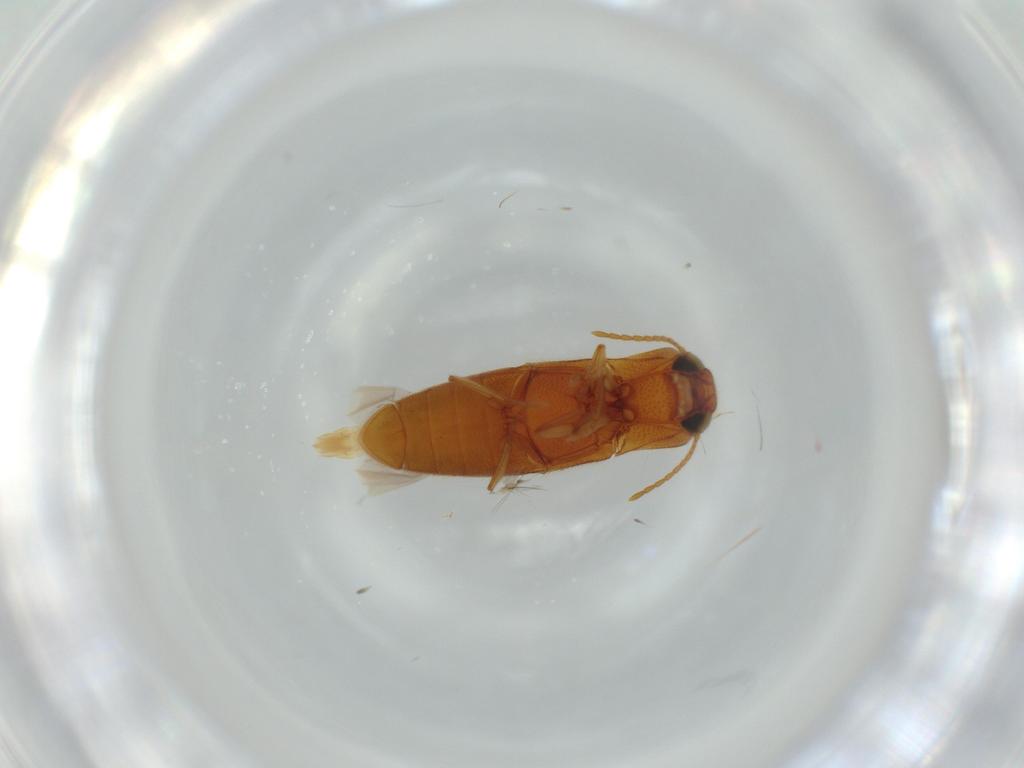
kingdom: Animalia
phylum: Arthropoda
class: Insecta
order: Coleoptera
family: Elateridae
